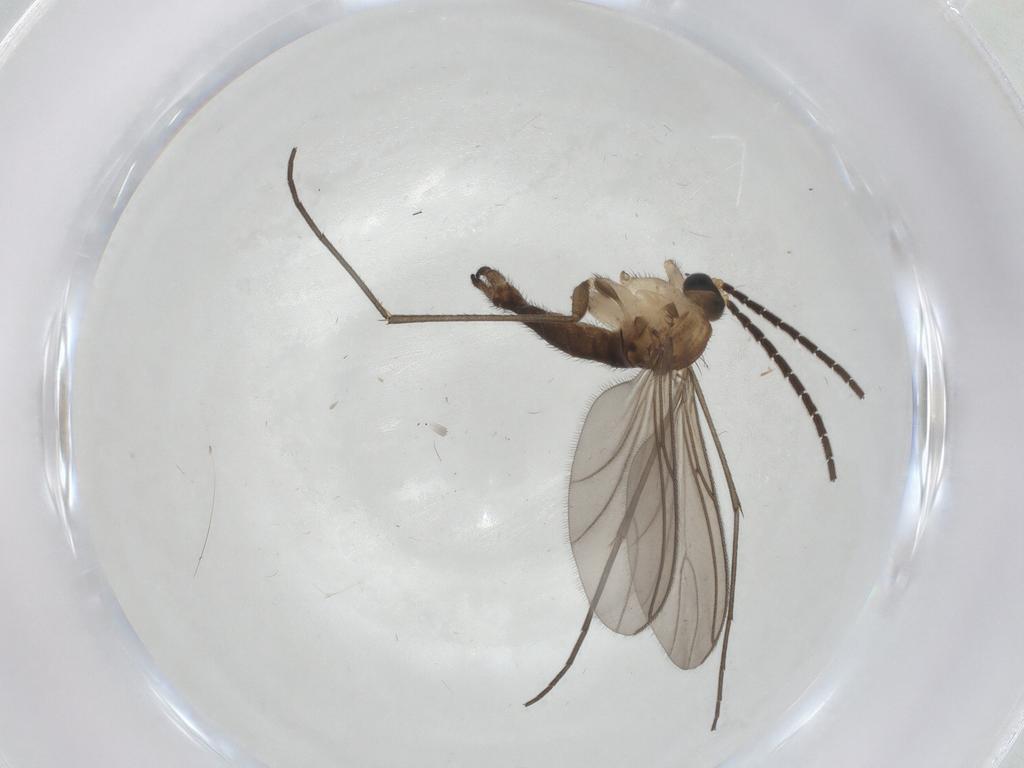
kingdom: Animalia
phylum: Arthropoda
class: Insecta
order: Diptera
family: Sciaridae
